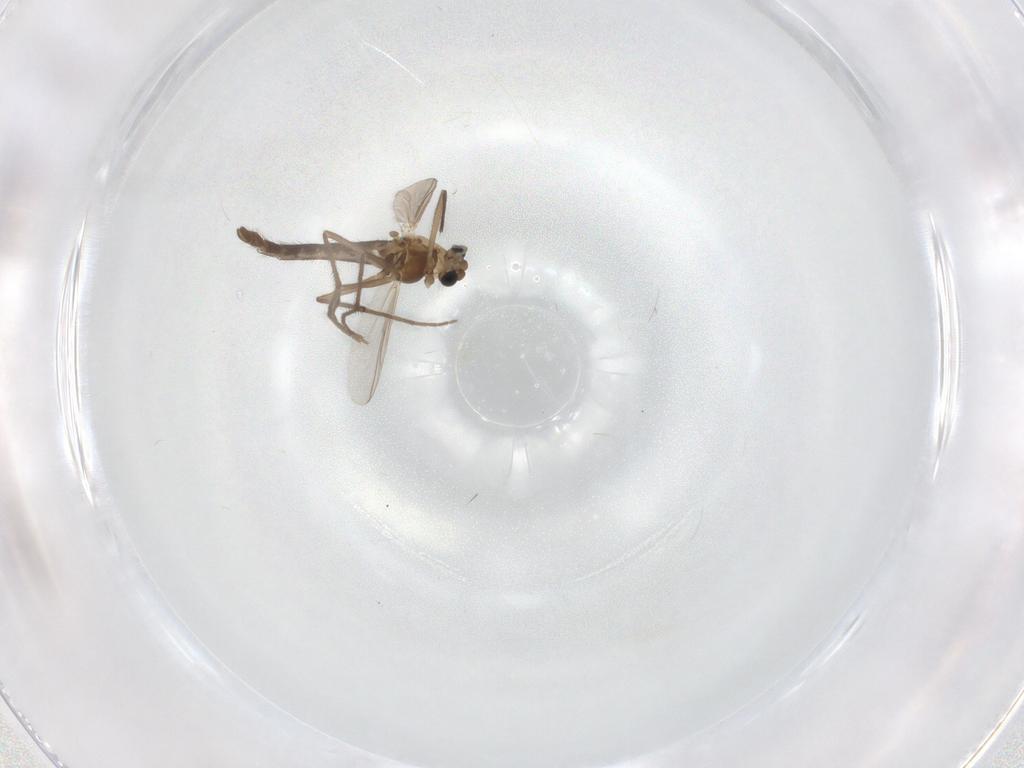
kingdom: Animalia
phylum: Arthropoda
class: Insecta
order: Diptera
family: Chironomidae
